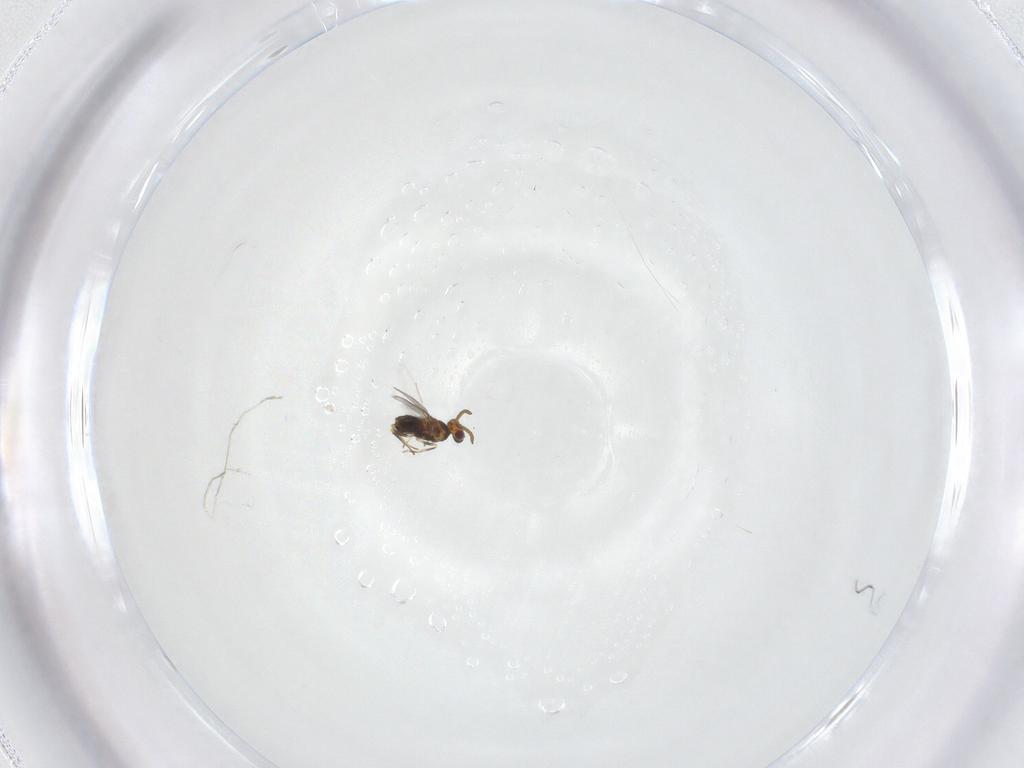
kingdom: Animalia
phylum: Arthropoda
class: Insecta
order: Hymenoptera
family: Aphelinidae
